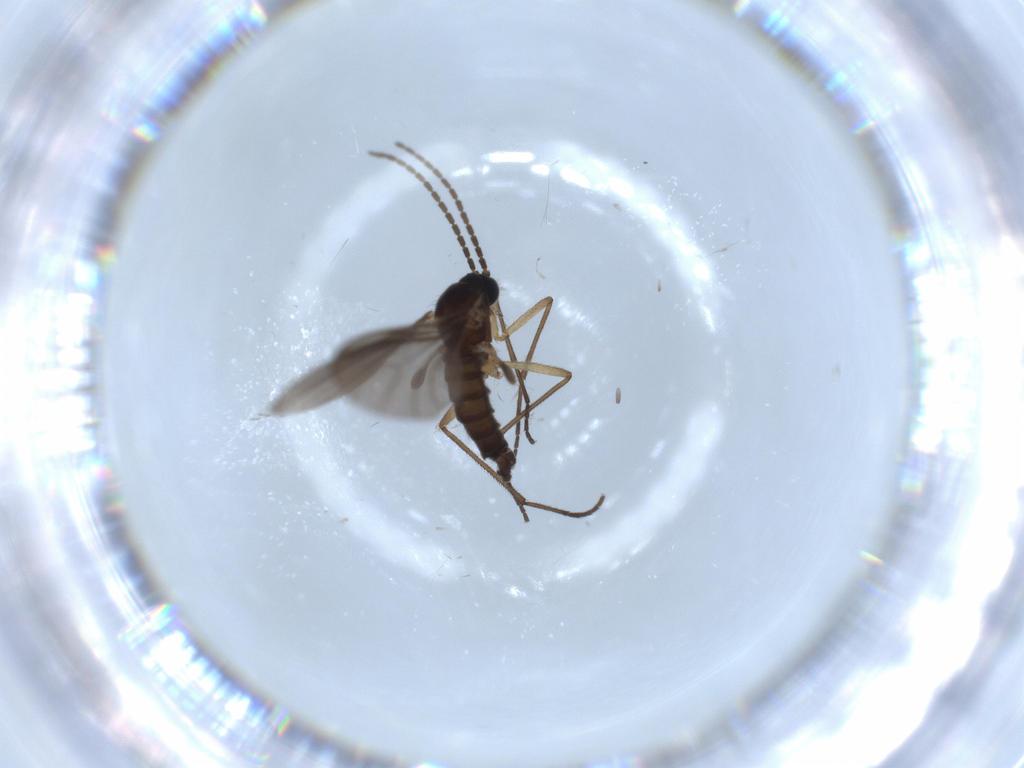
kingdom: Animalia
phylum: Arthropoda
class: Insecta
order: Diptera
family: Sciaridae
